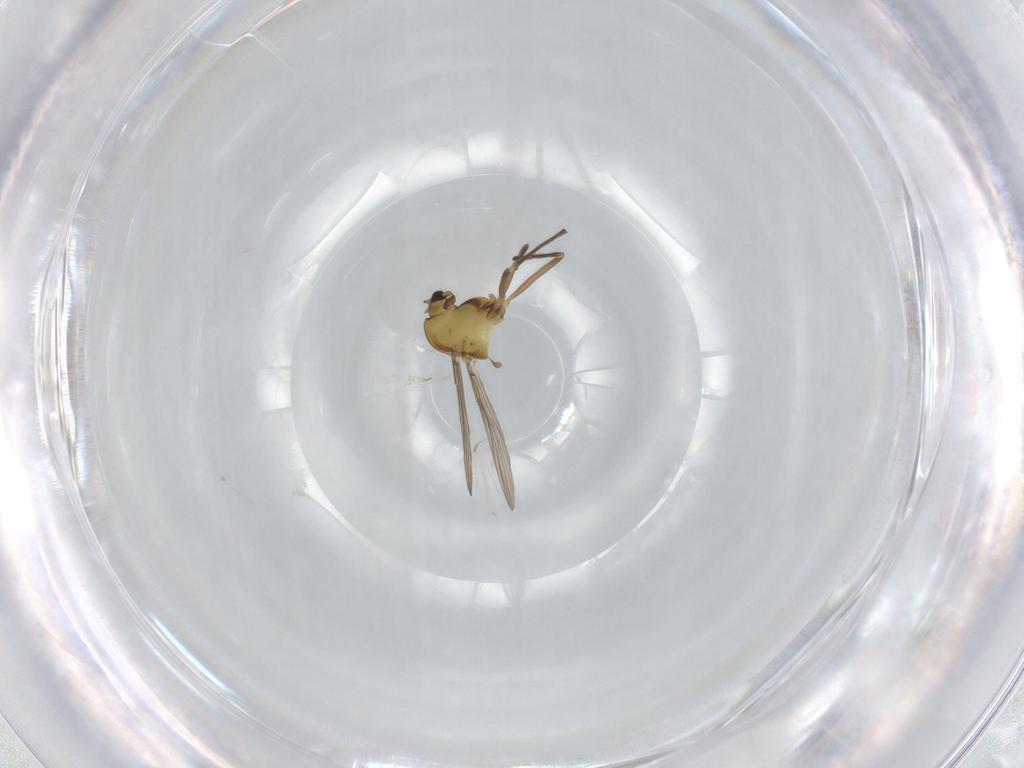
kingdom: Animalia
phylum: Arthropoda
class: Insecta
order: Diptera
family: Chironomidae
